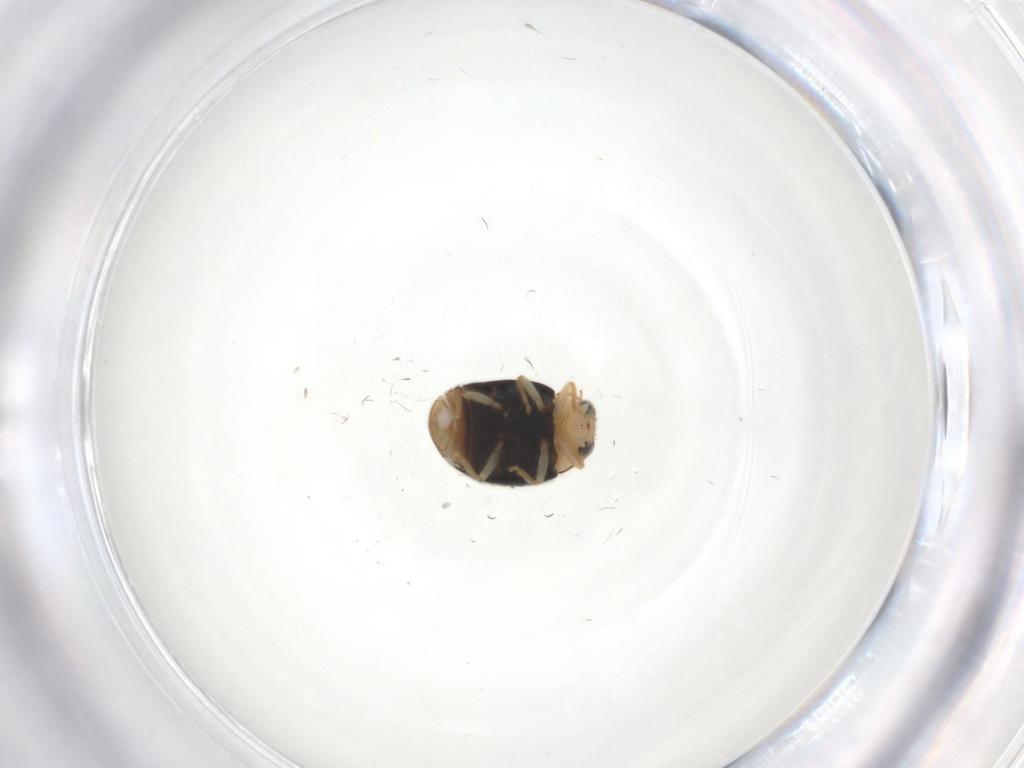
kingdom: Animalia
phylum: Arthropoda
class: Insecta
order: Coleoptera
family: Coccinellidae
